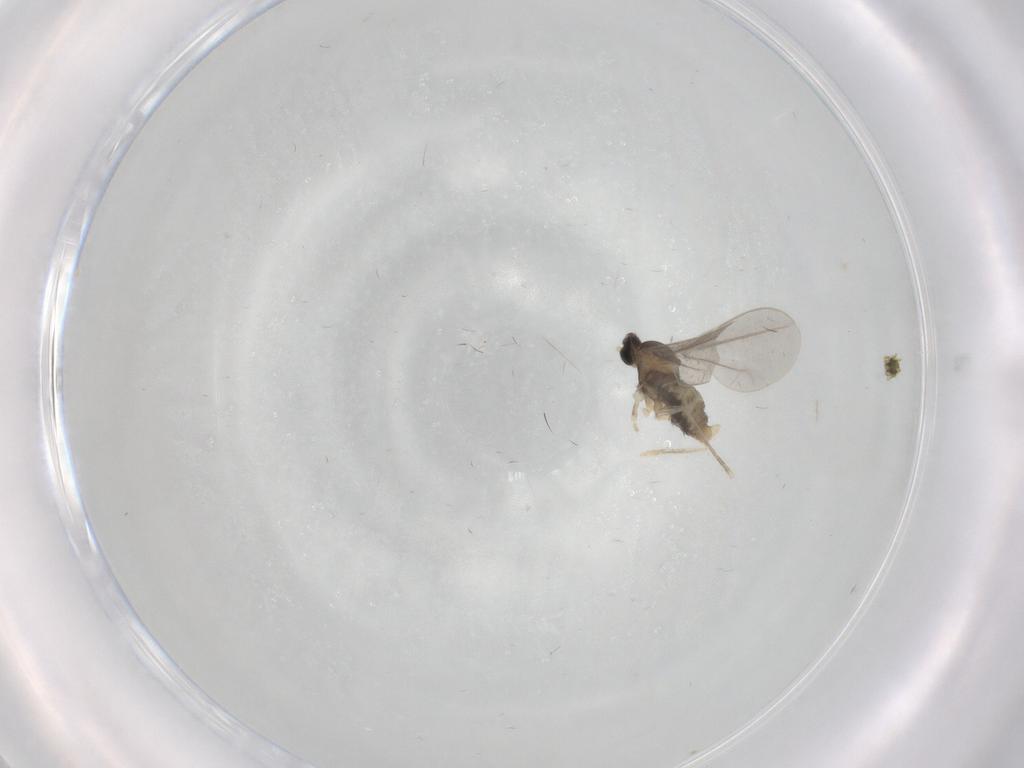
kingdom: Animalia
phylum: Arthropoda
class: Insecta
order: Diptera
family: Cecidomyiidae
